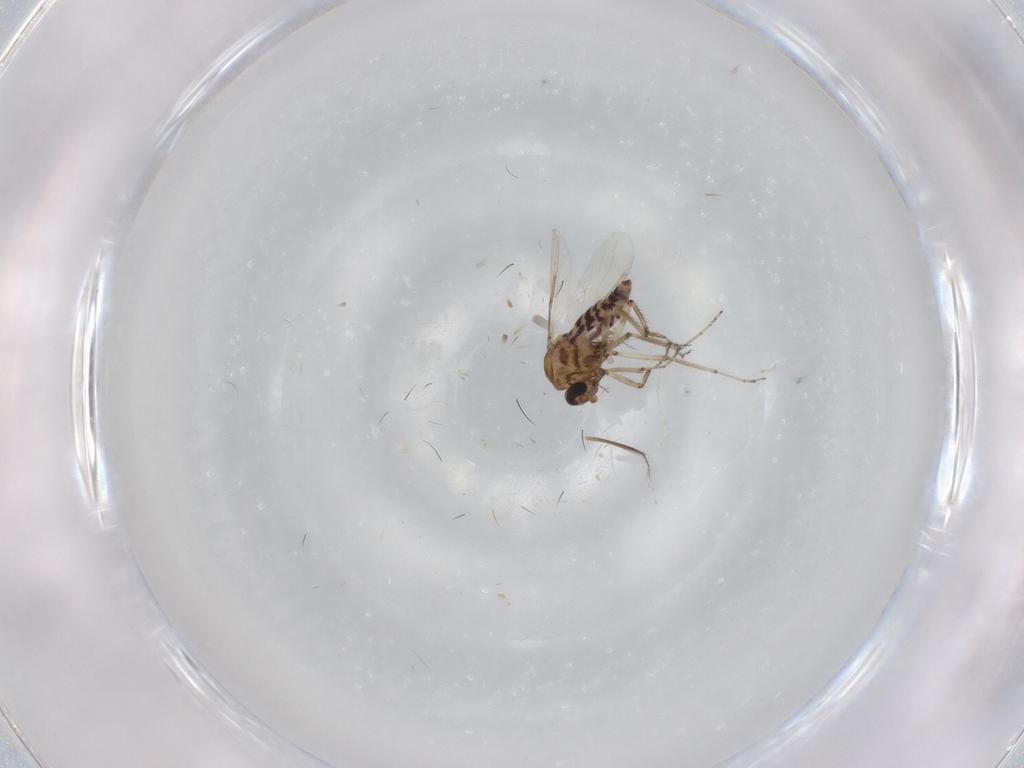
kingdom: Animalia
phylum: Arthropoda
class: Insecta
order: Diptera
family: Ceratopogonidae
